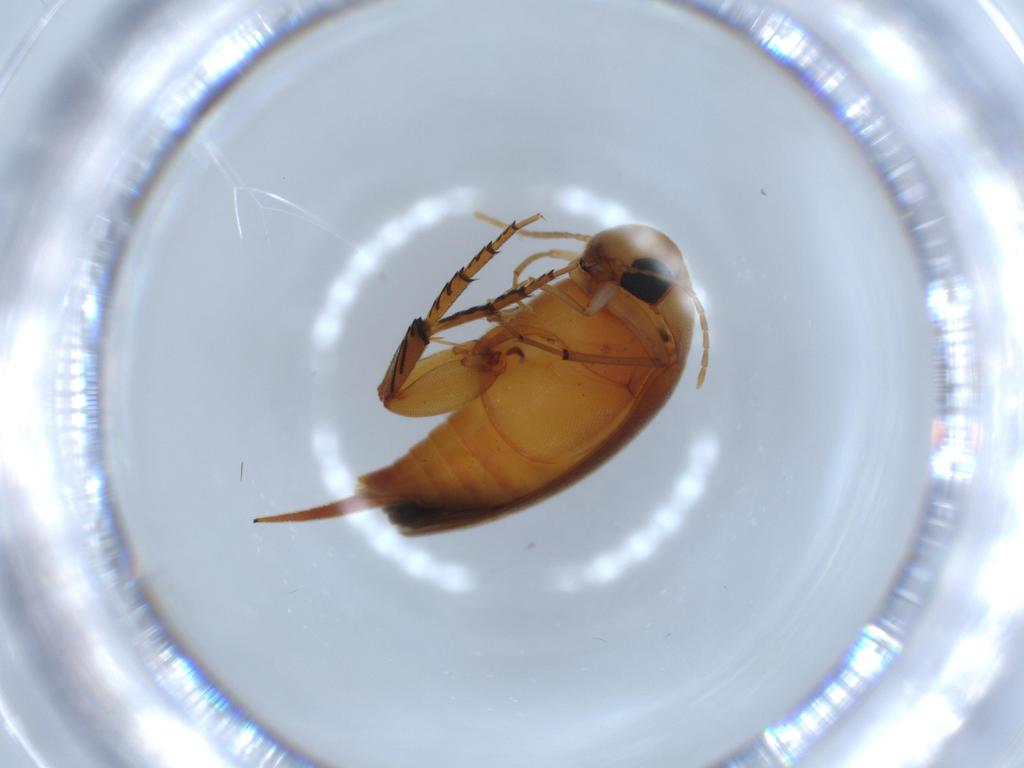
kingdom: Animalia
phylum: Arthropoda
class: Insecta
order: Coleoptera
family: Mordellidae
